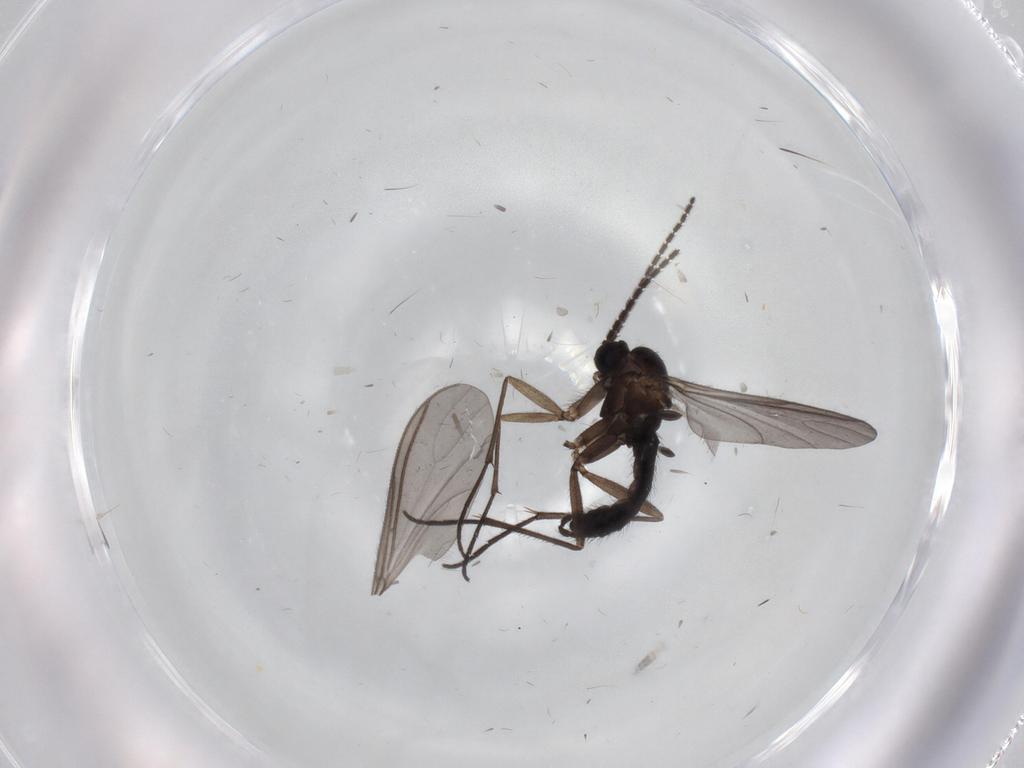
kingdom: Animalia
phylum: Arthropoda
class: Insecta
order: Diptera
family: Sciaridae
